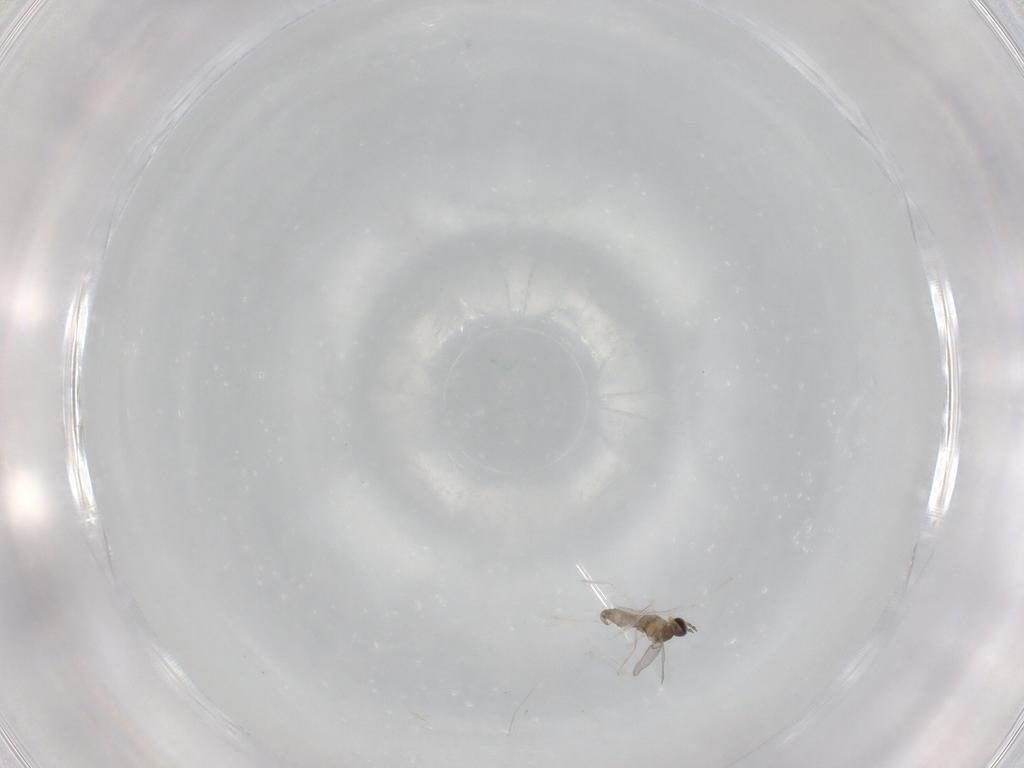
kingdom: Animalia
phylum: Arthropoda
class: Insecta
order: Diptera
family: Cecidomyiidae
